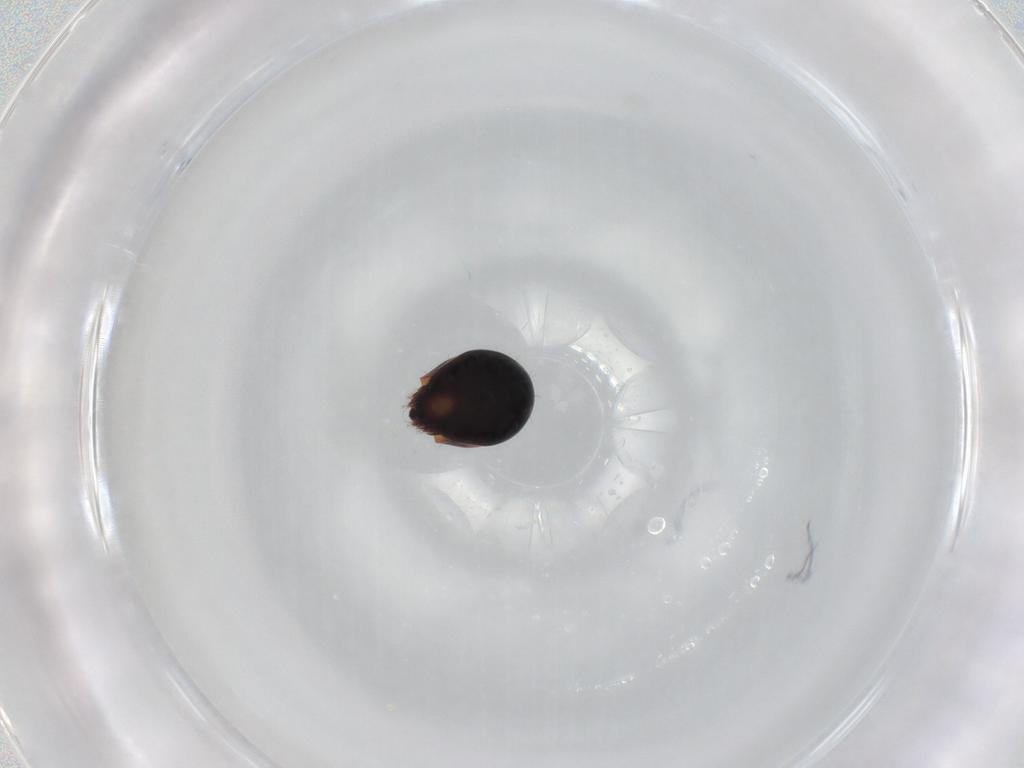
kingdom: Animalia
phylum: Arthropoda
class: Arachnida
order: Sarcoptiformes
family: Ceratozetidae
